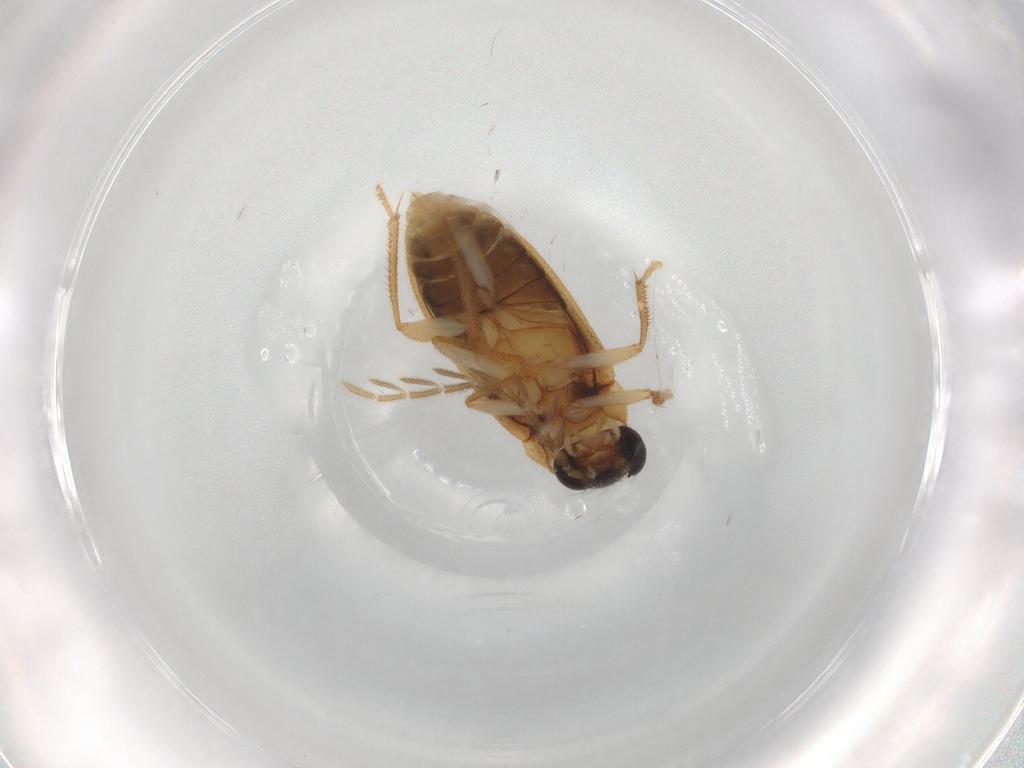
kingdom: Animalia
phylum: Arthropoda
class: Insecta
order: Coleoptera
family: Ptilodactylidae
